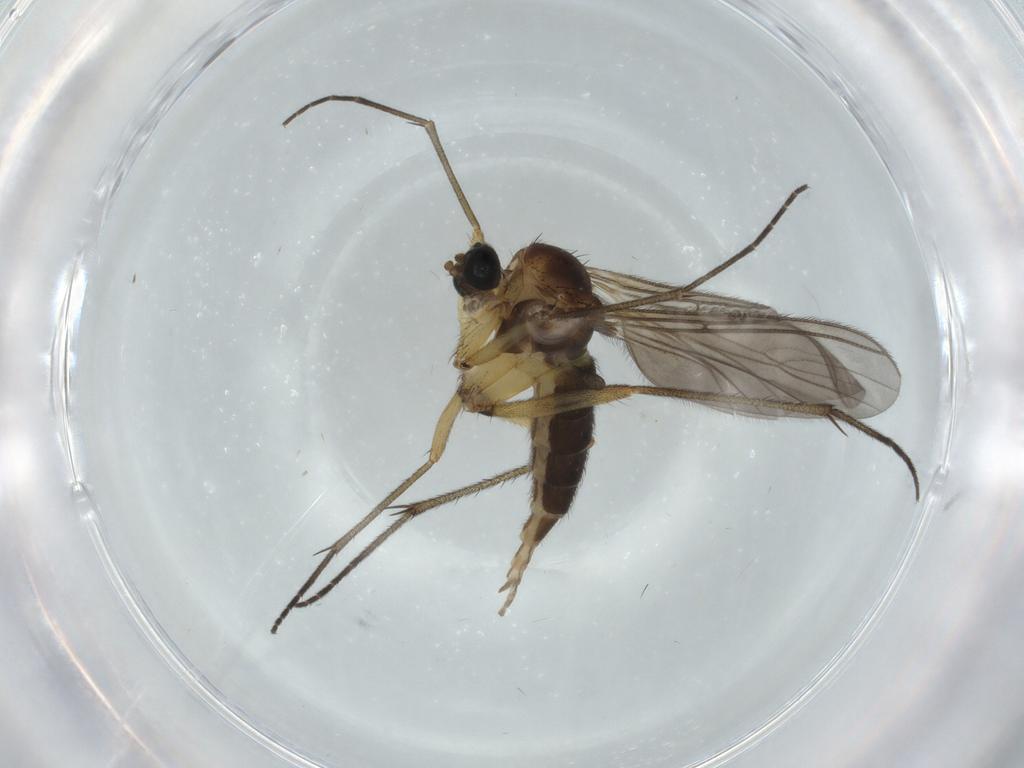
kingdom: Animalia
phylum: Arthropoda
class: Insecta
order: Diptera
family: Sciaridae
